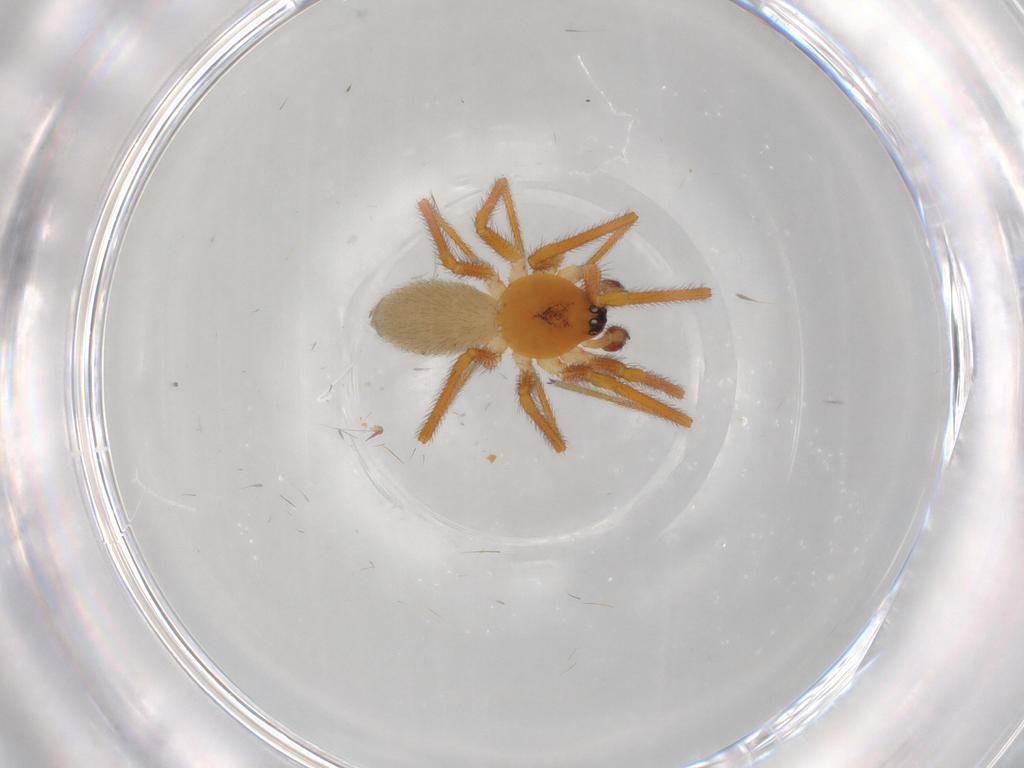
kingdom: Animalia
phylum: Arthropoda
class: Arachnida
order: Araneae
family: Linyphiidae
